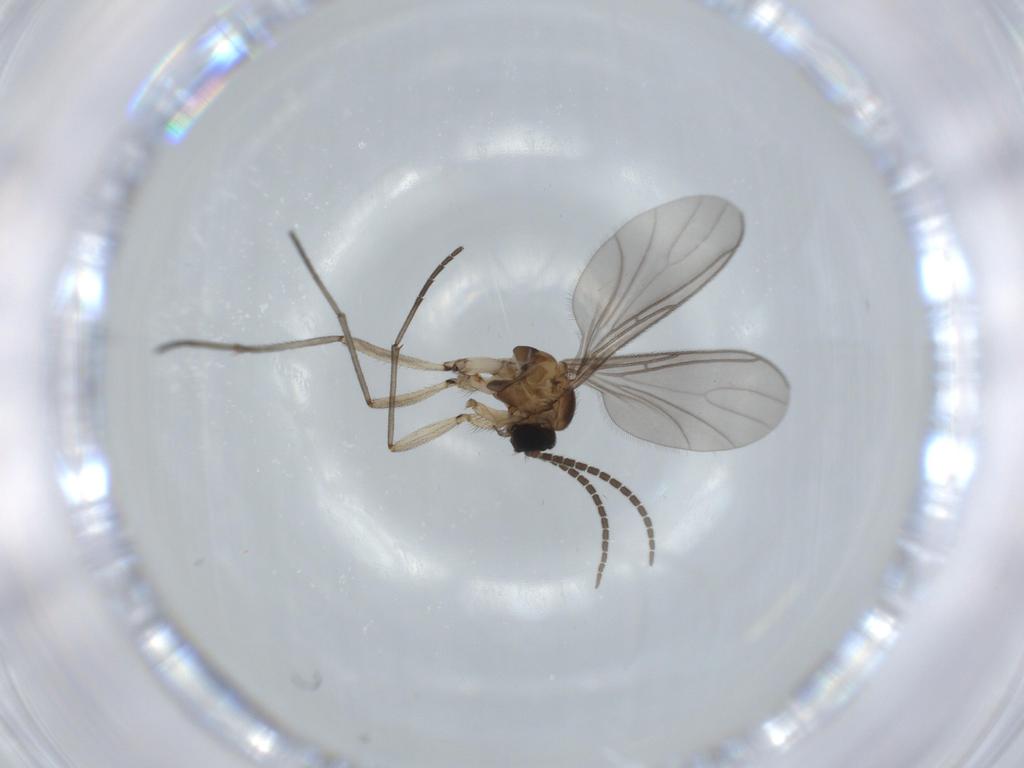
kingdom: Animalia
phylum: Arthropoda
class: Insecta
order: Diptera
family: Sciaridae
